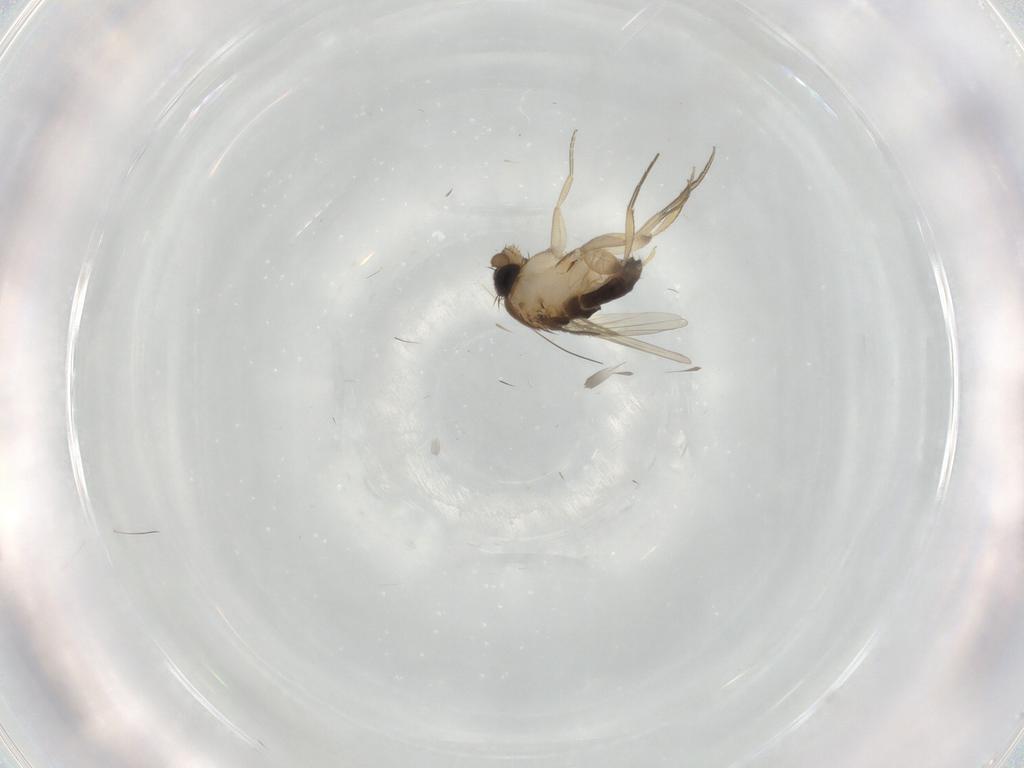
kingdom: Animalia
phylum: Arthropoda
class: Insecta
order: Diptera
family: Phoridae
